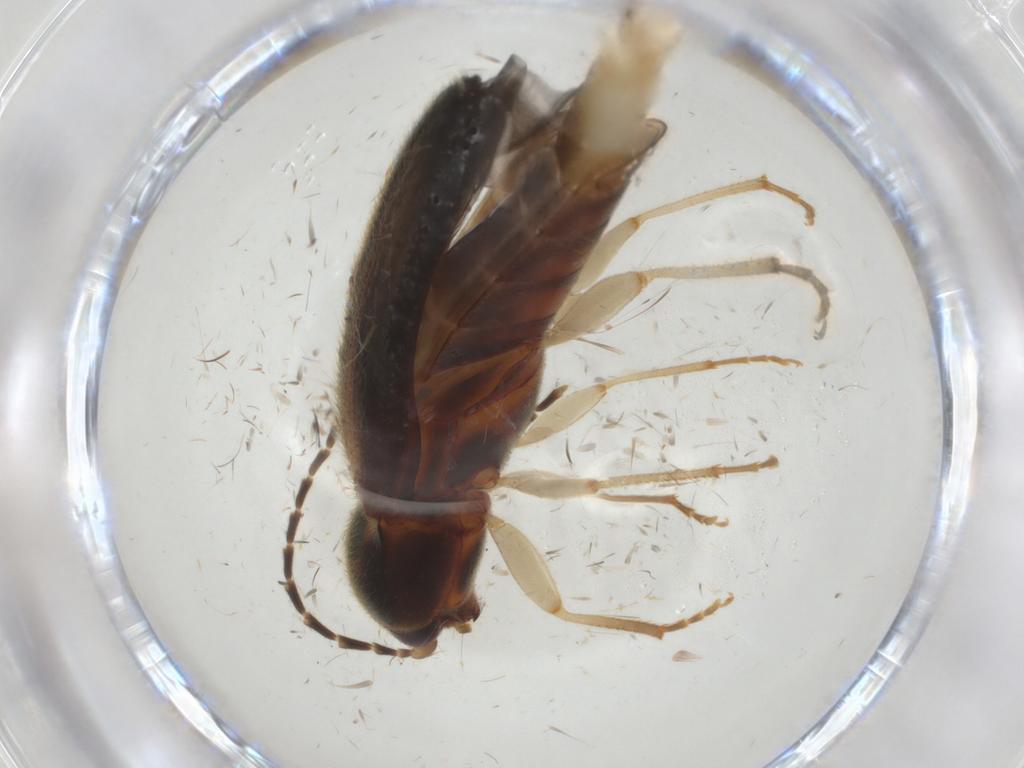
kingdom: Animalia
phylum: Arthropoda
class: Insecta
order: Coleoptera
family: Elateridae
